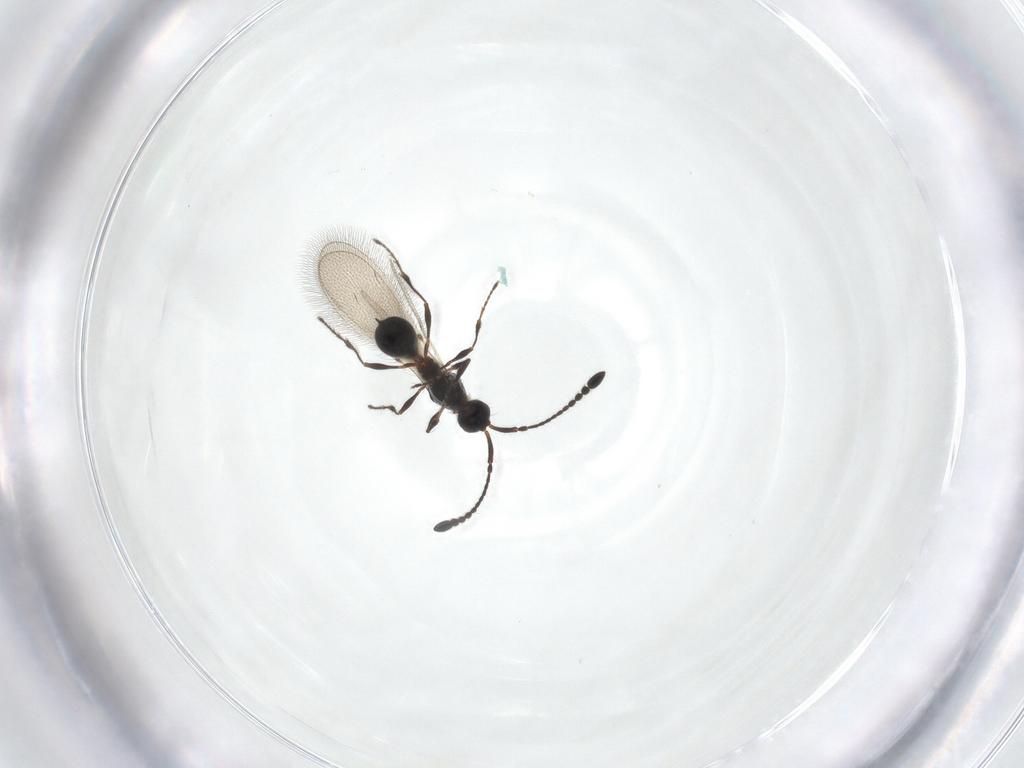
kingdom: Animalia
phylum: Arthropoda
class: Insecta
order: Hymenoptera
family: Diapriidae
